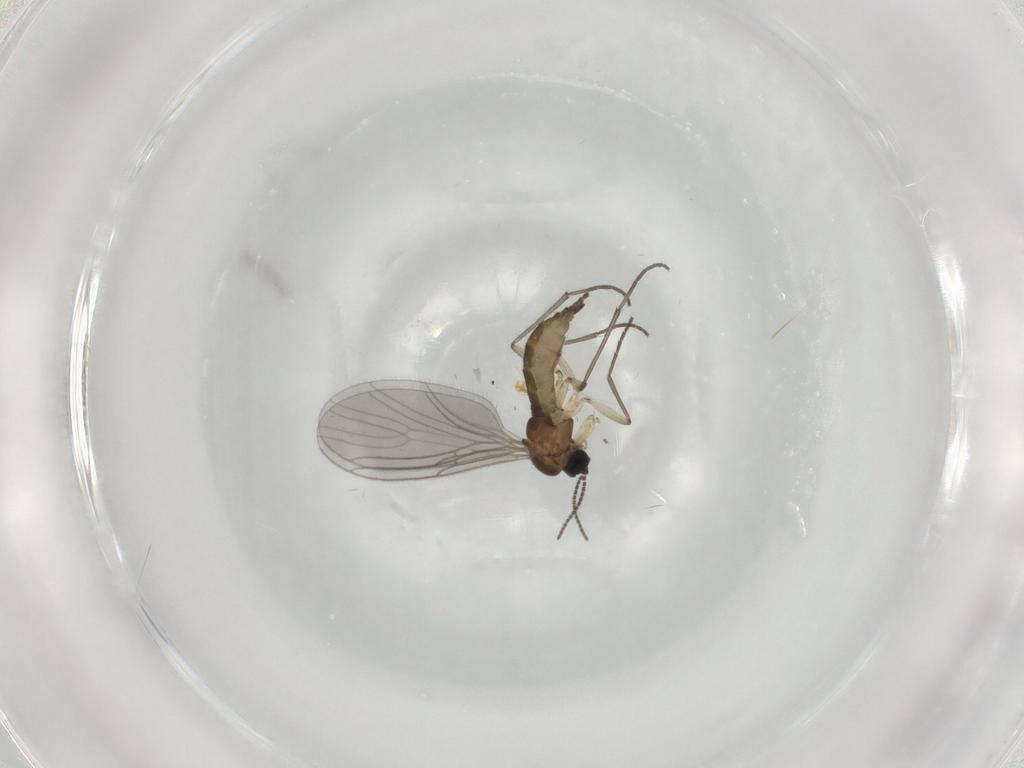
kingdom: Animalia
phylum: Arthropoda
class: Insecta
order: Diptera
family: Sciaridae
